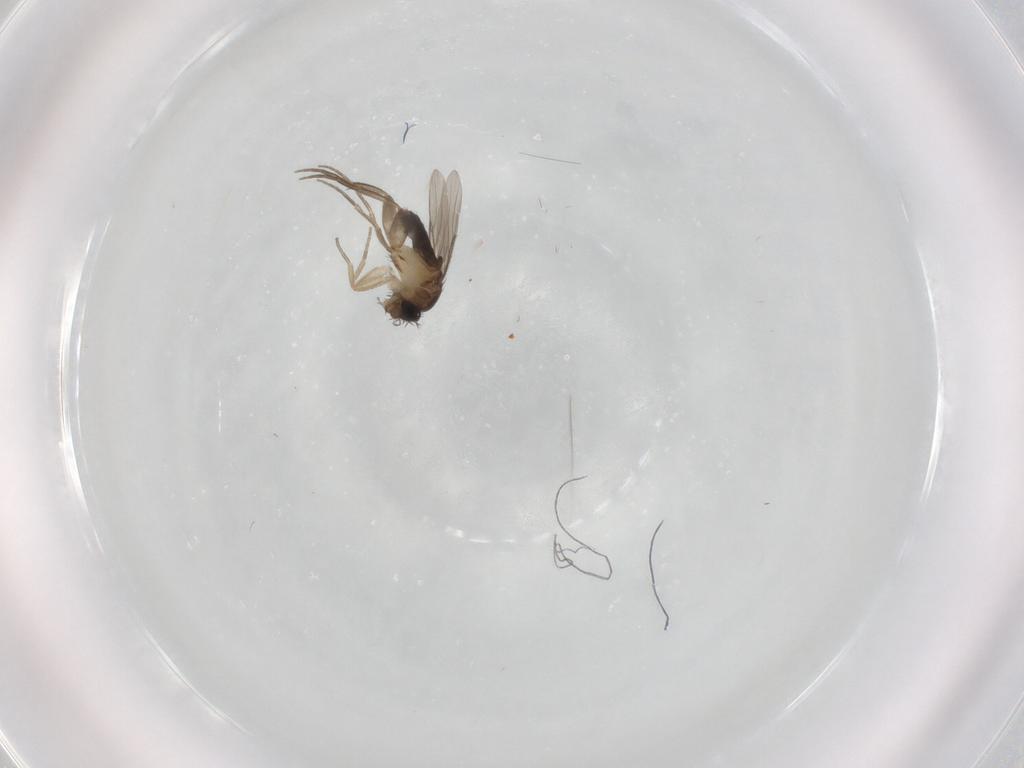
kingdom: Animalia
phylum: Arthropoda
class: Insecta
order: Diptera
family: Phoridae
